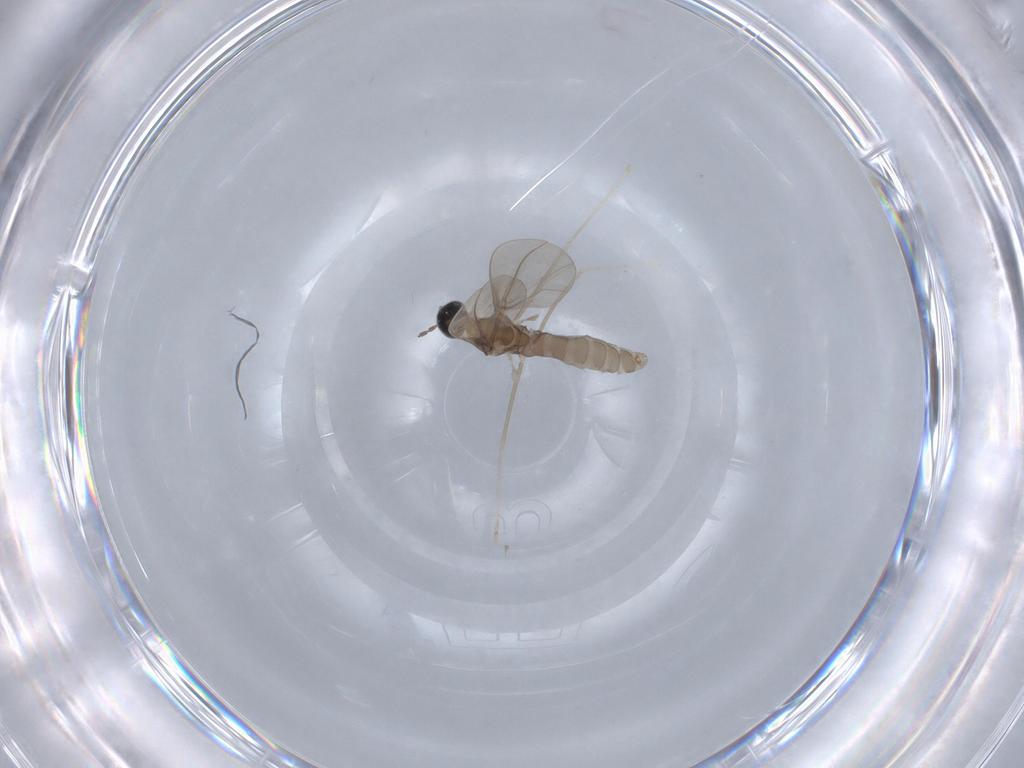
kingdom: Animalia
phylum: Arthropoda
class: Insecta
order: Diptera
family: Cecidomyiidae
